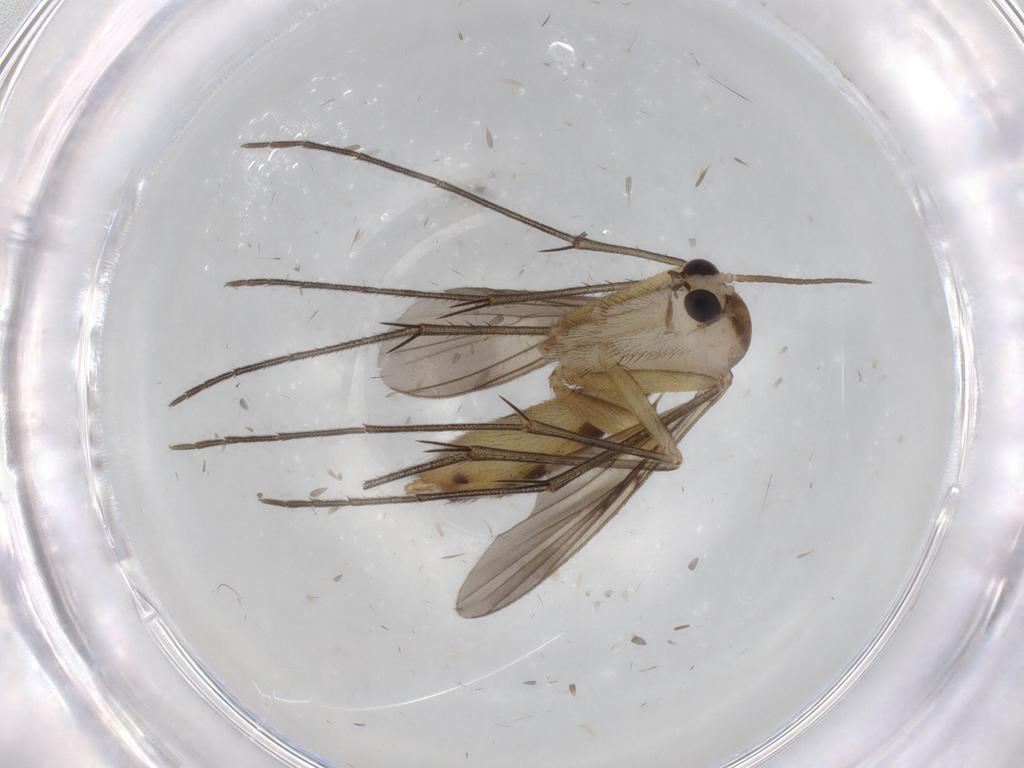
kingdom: Animalia
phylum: Arthropoda
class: Insecta
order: Diptera
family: Mycetophilidae
